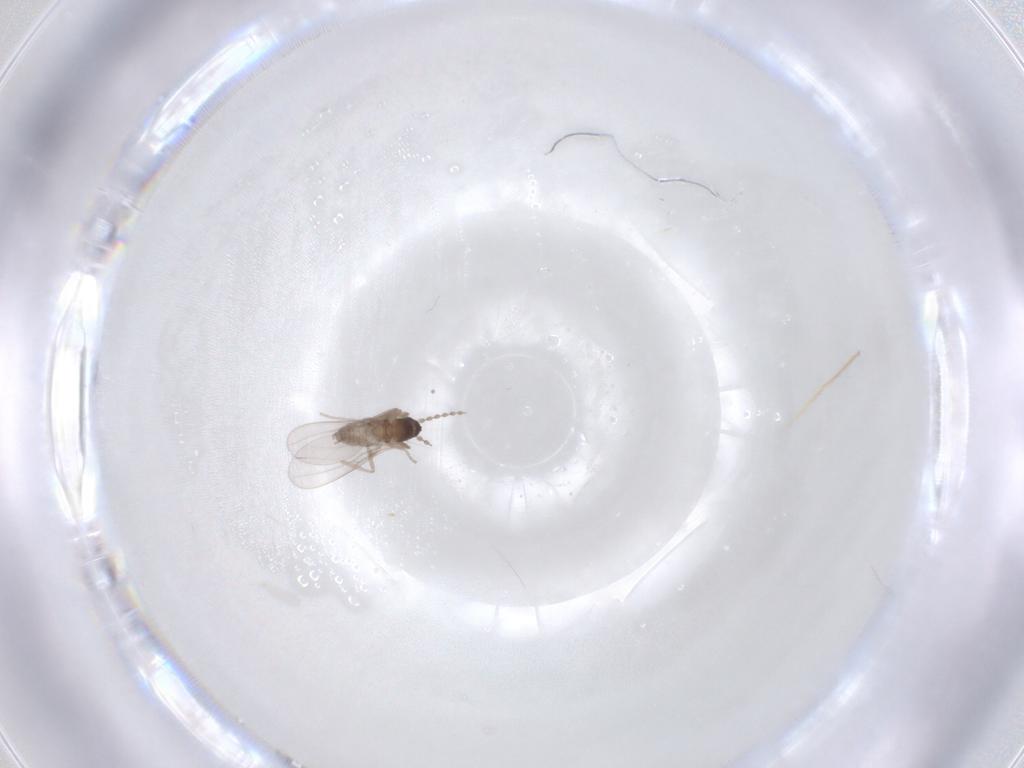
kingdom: Animalia
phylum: Arthropoda
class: Insecta
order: Diptera
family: Cecidomyiidae
